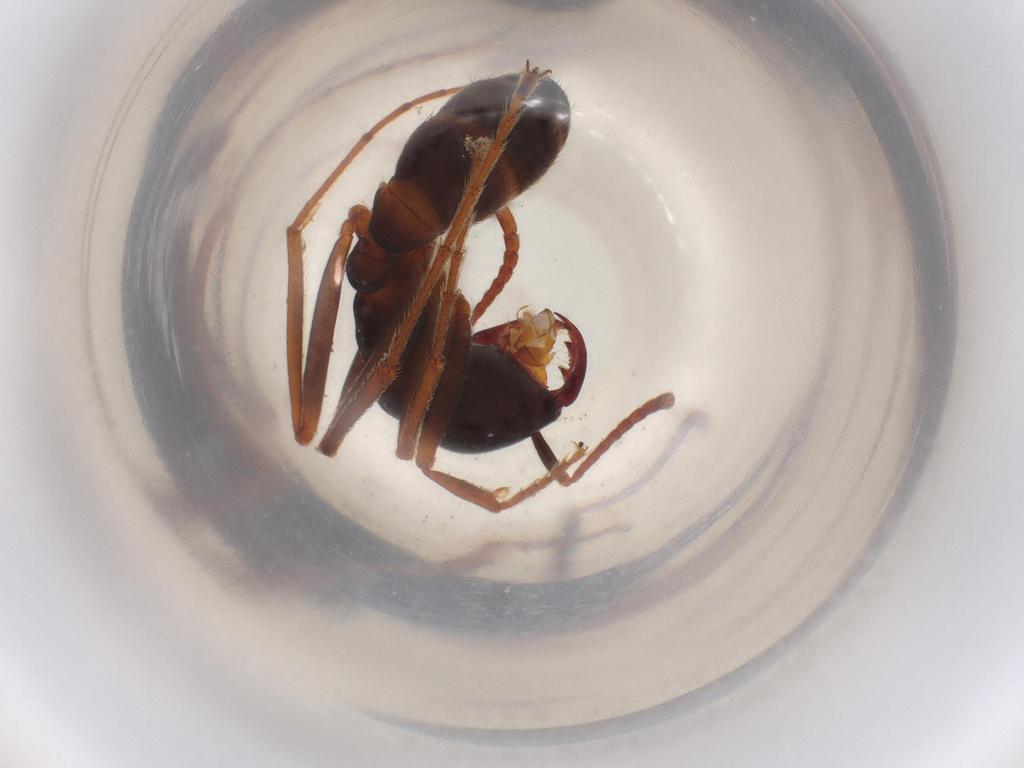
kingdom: Animalia
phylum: Arthropoda
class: Insecta
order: Hymenoptera
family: Formicidae
